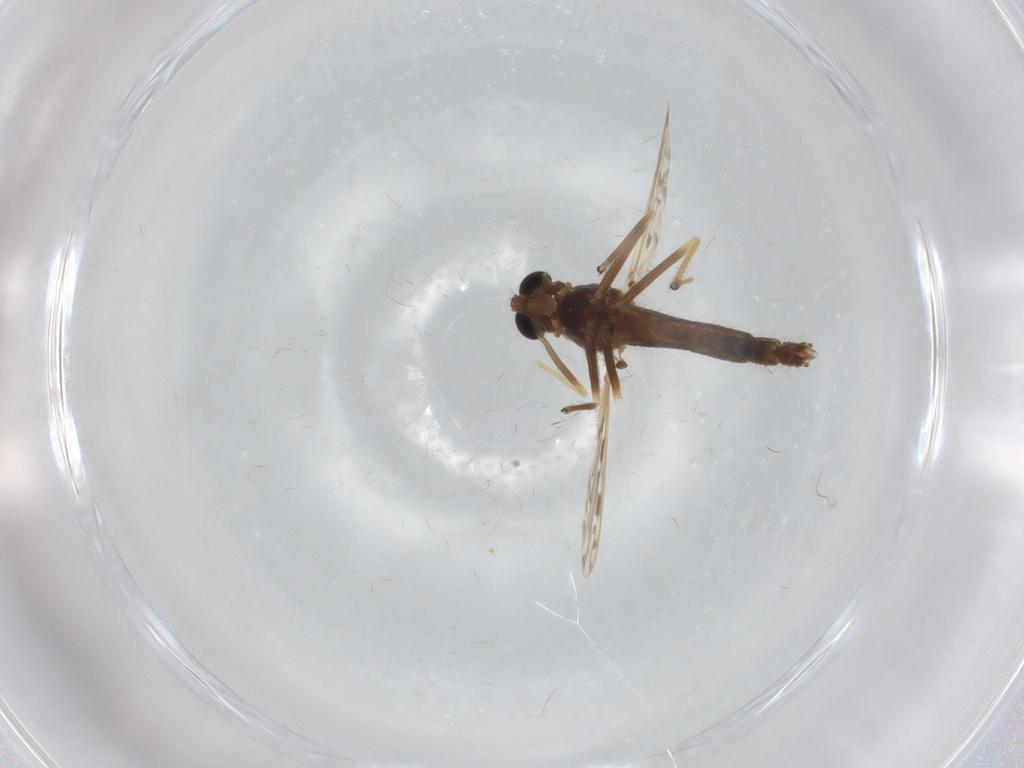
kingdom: Animalia
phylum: Arthropoda
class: Insecta
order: Diptera
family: Chironomidae
